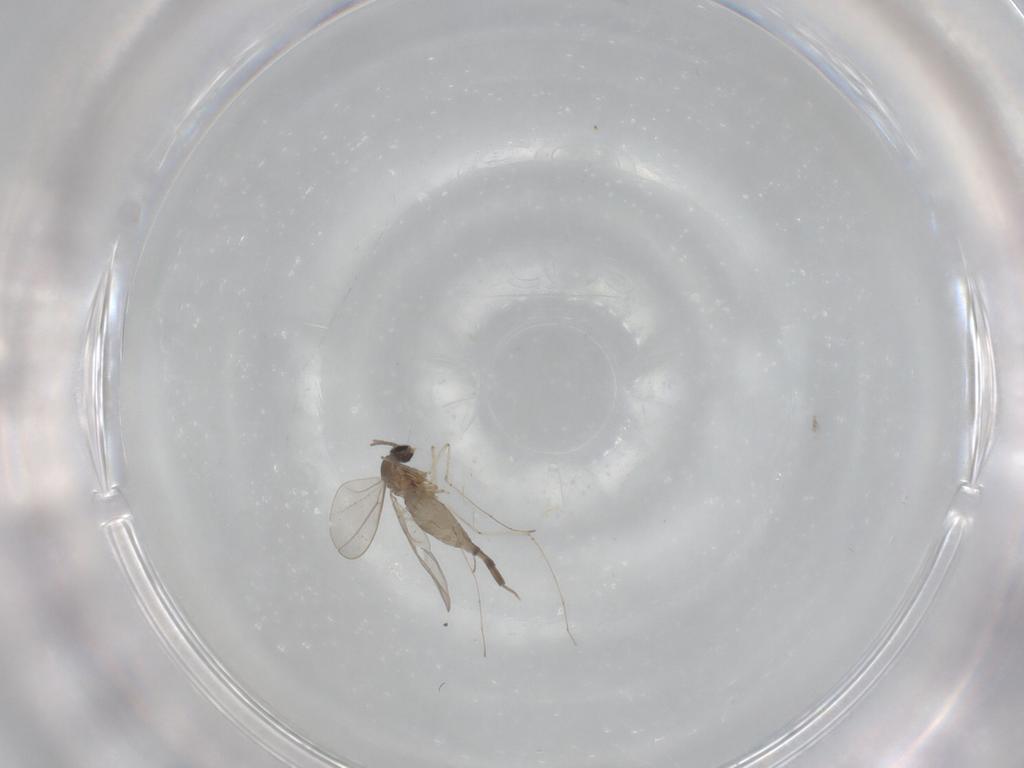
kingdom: Animalia
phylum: Arthropoda
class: Insecta
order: Diptera
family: Cecidomyiidae
